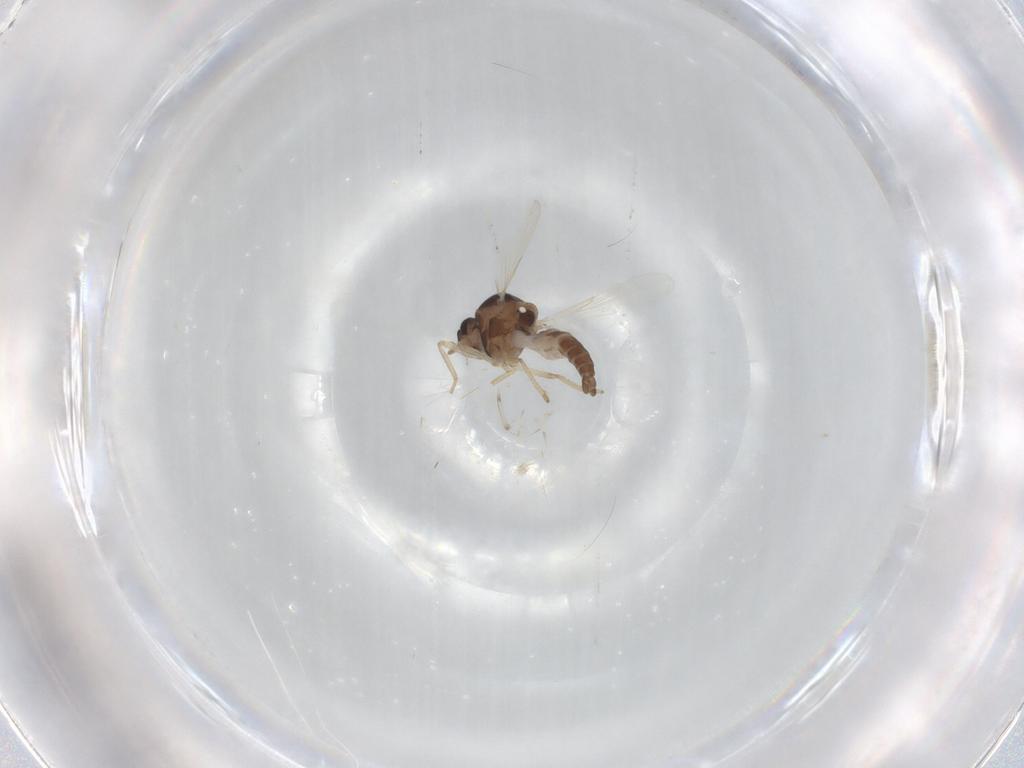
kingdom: Animalia
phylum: Arthropoda
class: Insecta
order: Diptera
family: Ceratopogonidae
